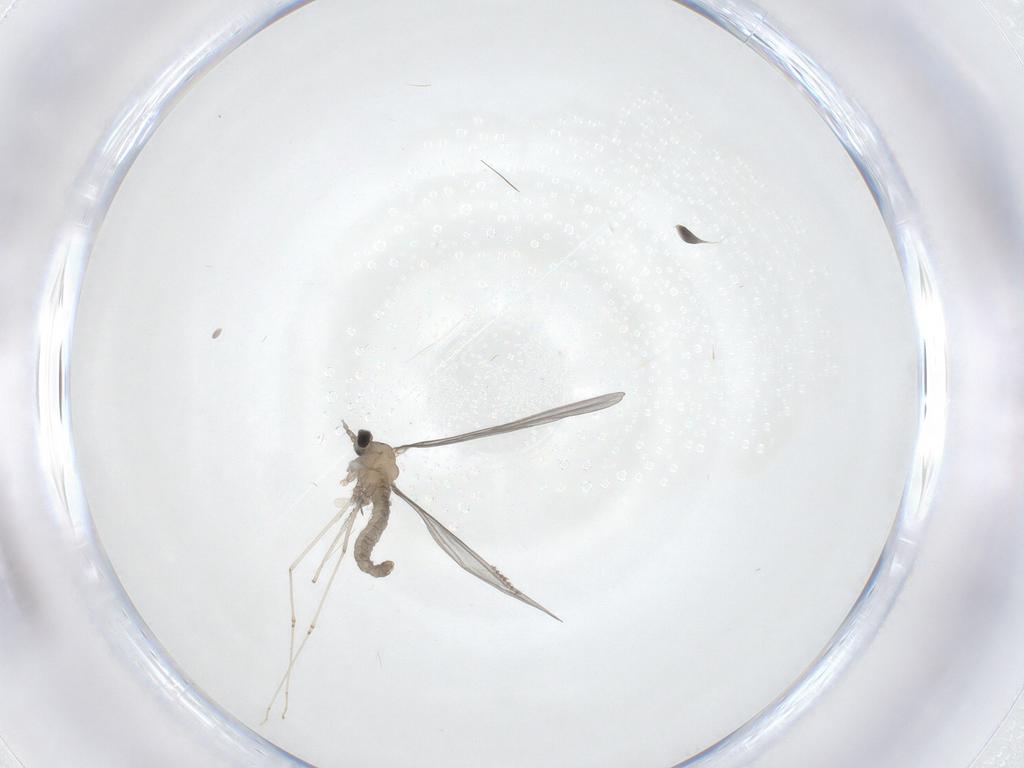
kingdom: Animalia
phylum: Arthropoda
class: Insecta
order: Diptera
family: Cecidomyiidae
